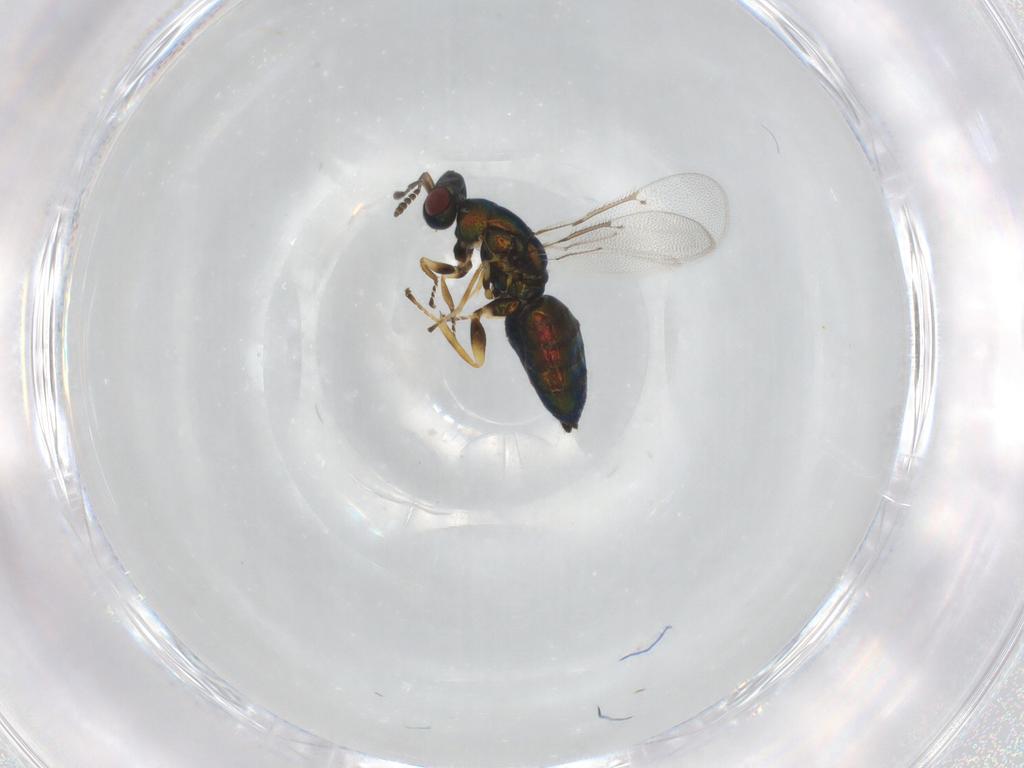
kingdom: Animalia
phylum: Arthropoda
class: Insecta
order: Hymenoptera
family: Eulophidae
